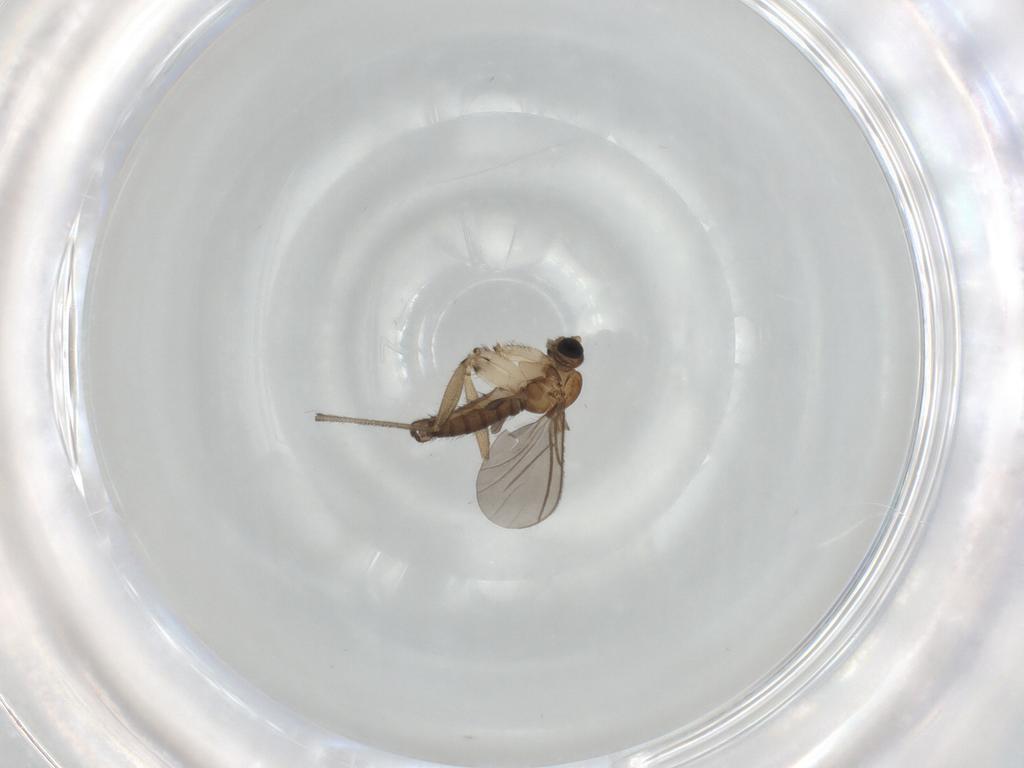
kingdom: Animalia
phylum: Arthropoda
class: Insecta
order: Diptera
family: Sciaridae
